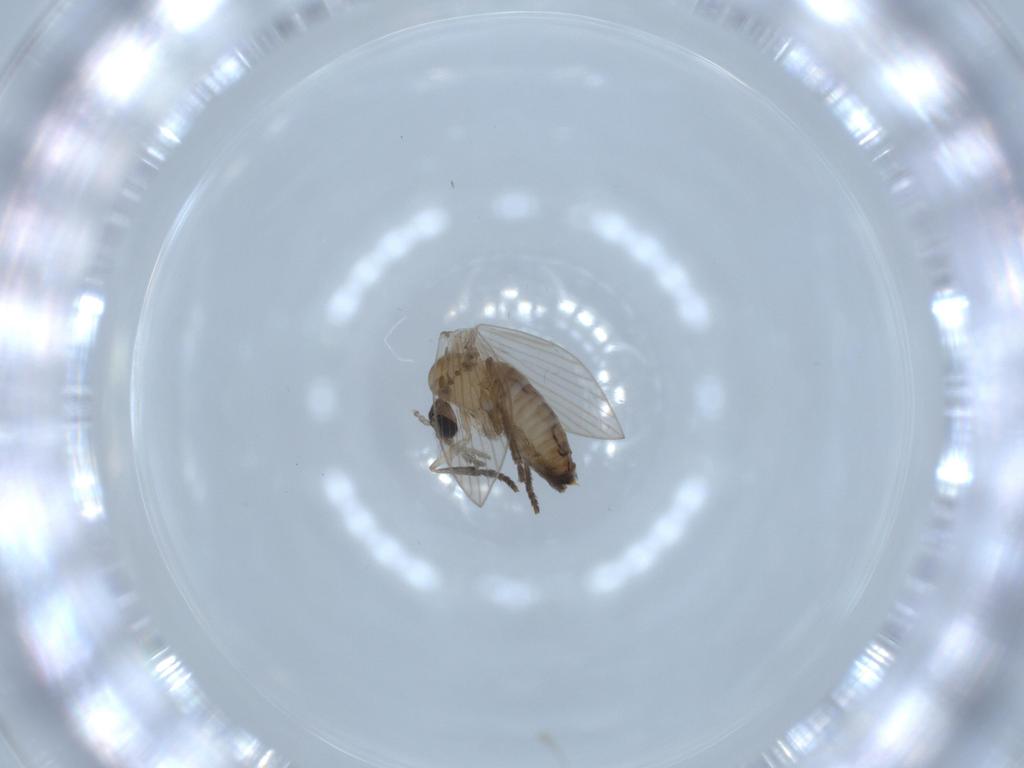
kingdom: Animalia
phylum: Arthropoda
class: Insecta
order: Diptera
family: Psychodidae
